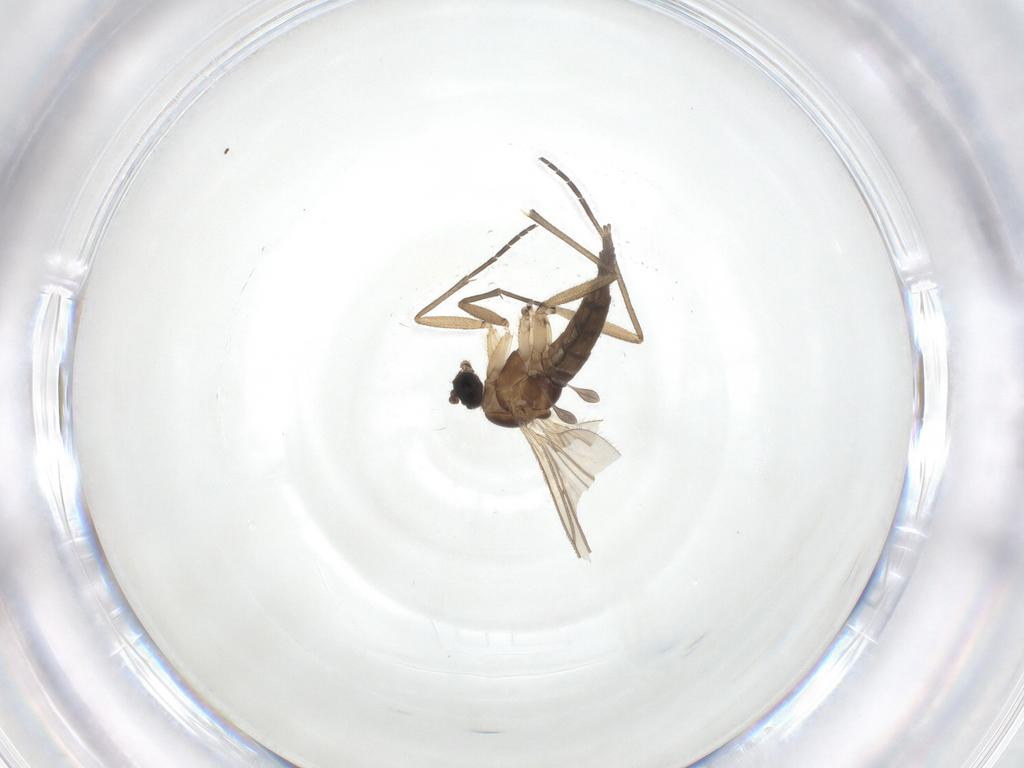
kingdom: Animalia
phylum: Arthropoda
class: Insecta
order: Diptera
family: Sciaridae
